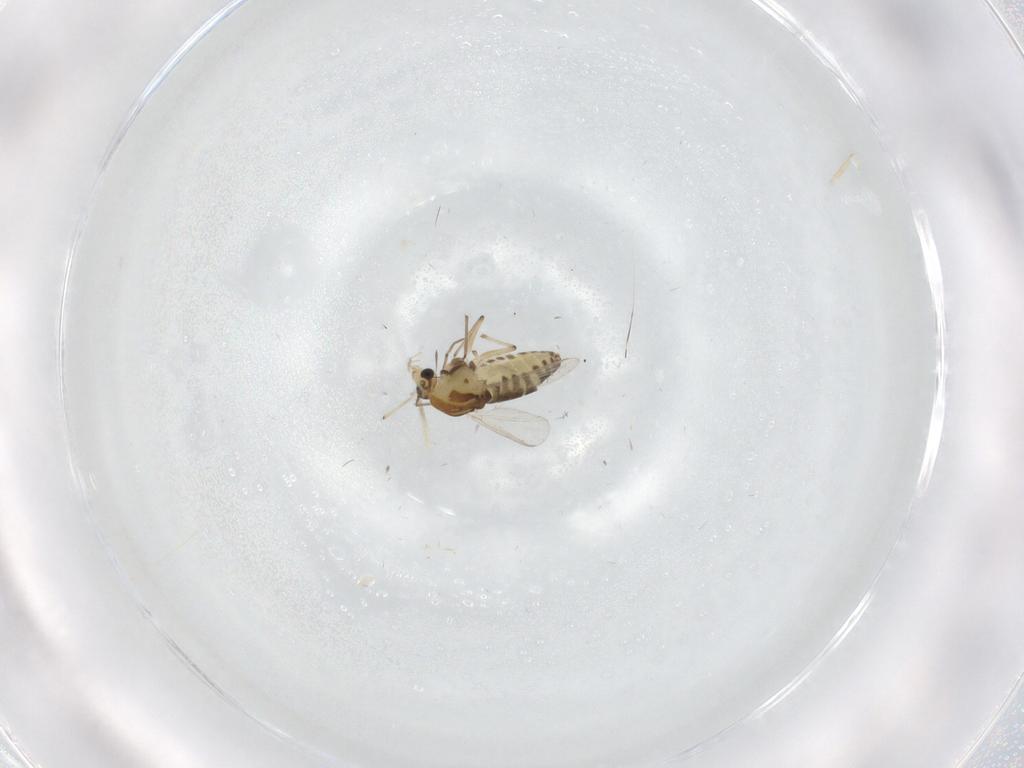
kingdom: Animalia
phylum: Arthropoda
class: Insecta
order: Diptera
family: Chironomidae
